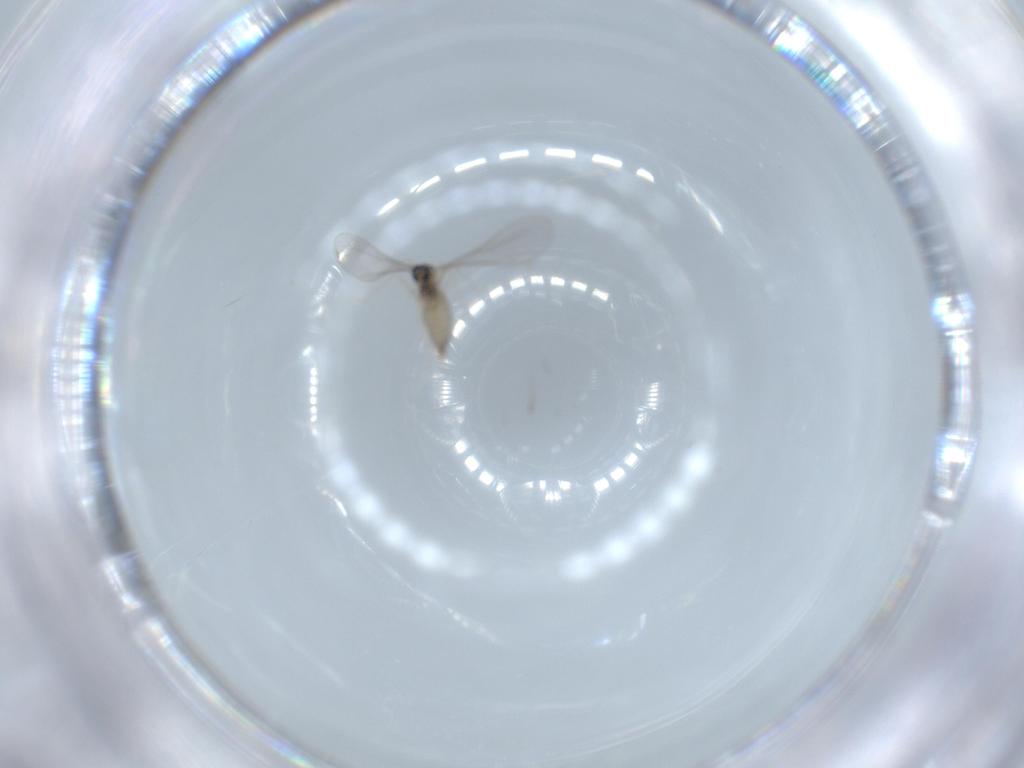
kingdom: Animalia
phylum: Arthropoda
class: Insecta
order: Diptera
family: Cecidomyiidae
